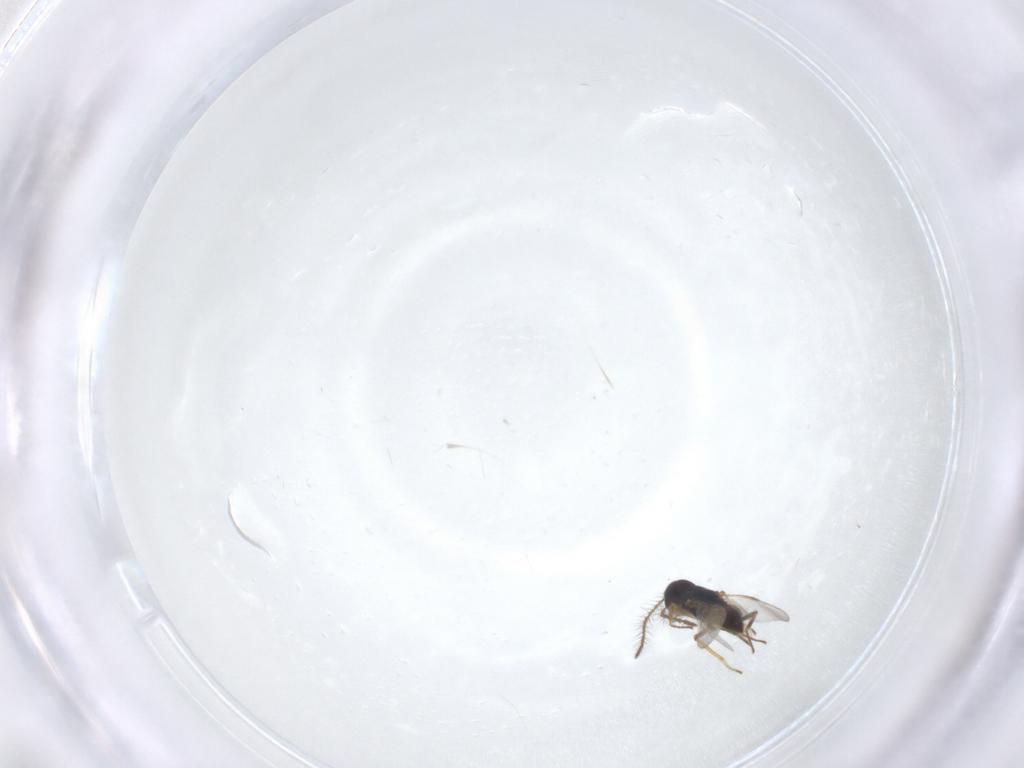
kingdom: Animalia
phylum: Arthropoda
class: Insecta
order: Hymenoptera
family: Encyrtidae
